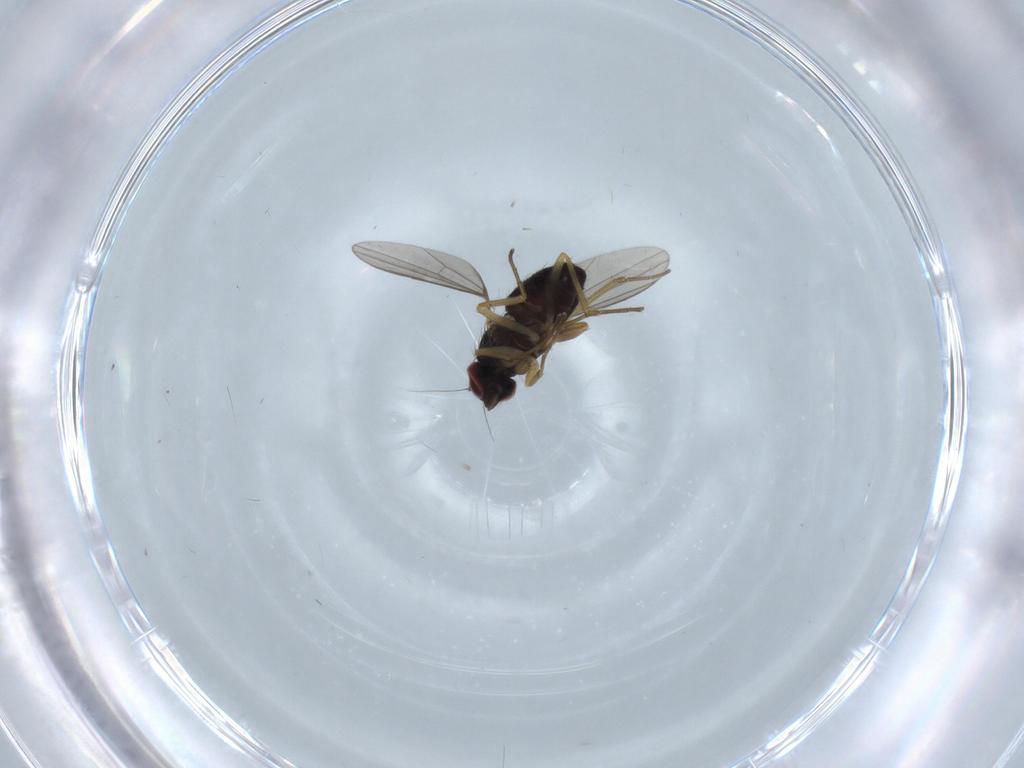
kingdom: Animalia
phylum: Arthropoda
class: Insecta
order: Diptera
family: Dolichopodidae
